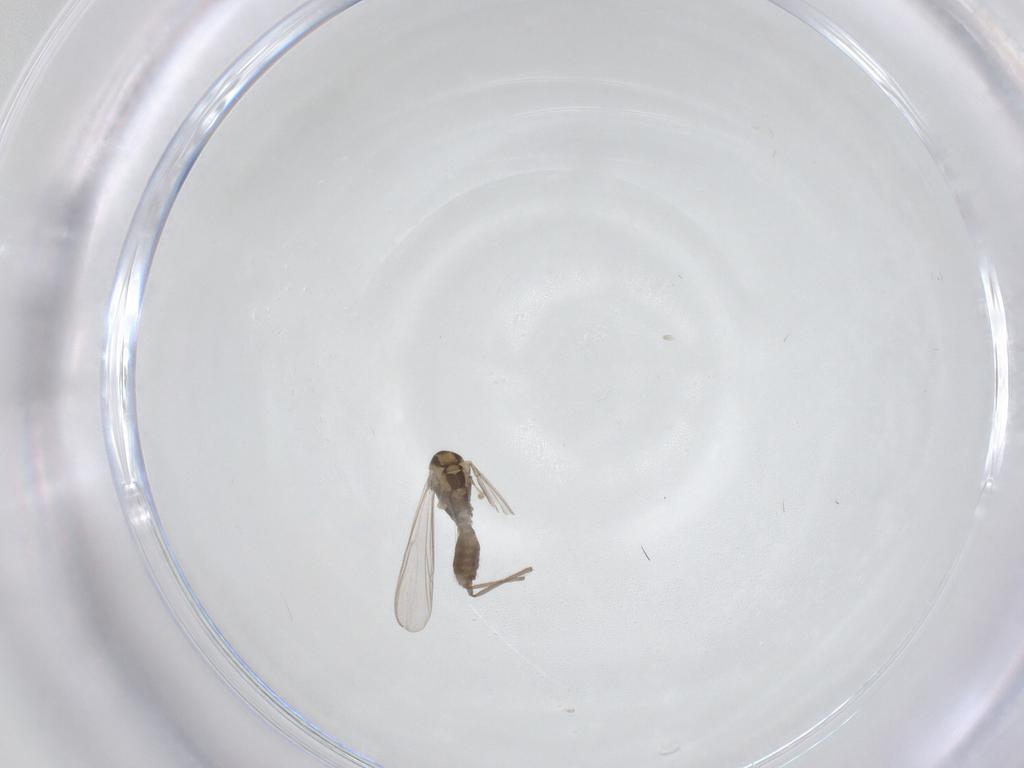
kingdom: Animalia
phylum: Arthropoda
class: Insecta
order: Diptera
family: Chironomidae
